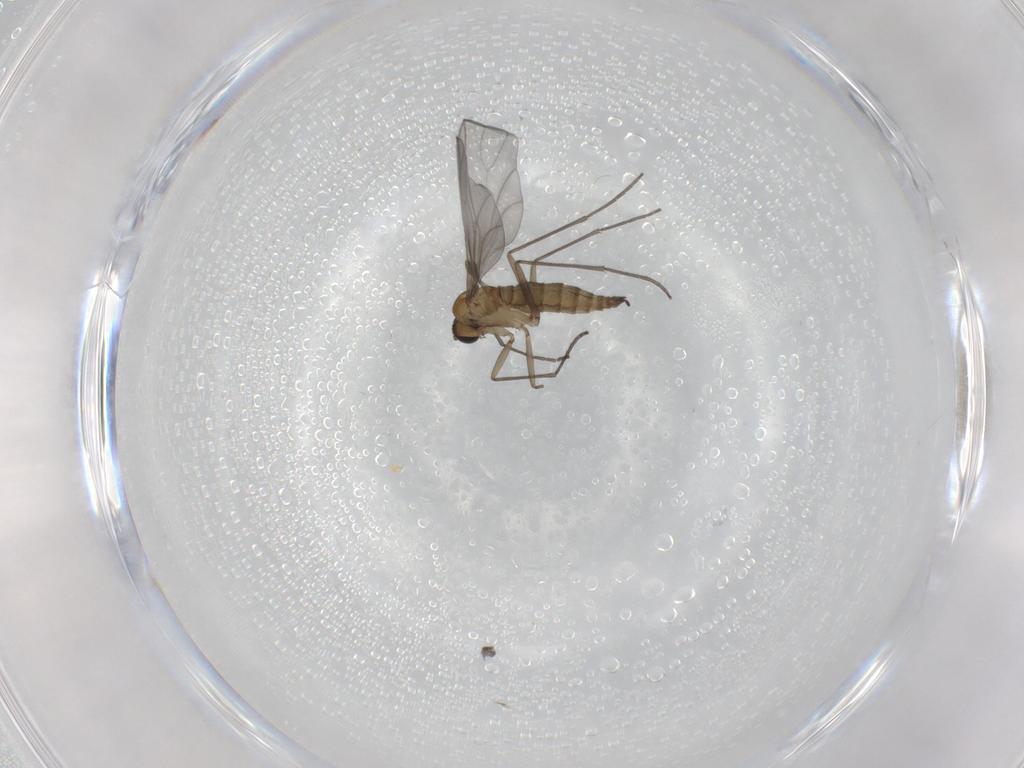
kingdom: Animalia
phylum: Arthropoda
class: Insecta
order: Diptera
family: Sciaridae
